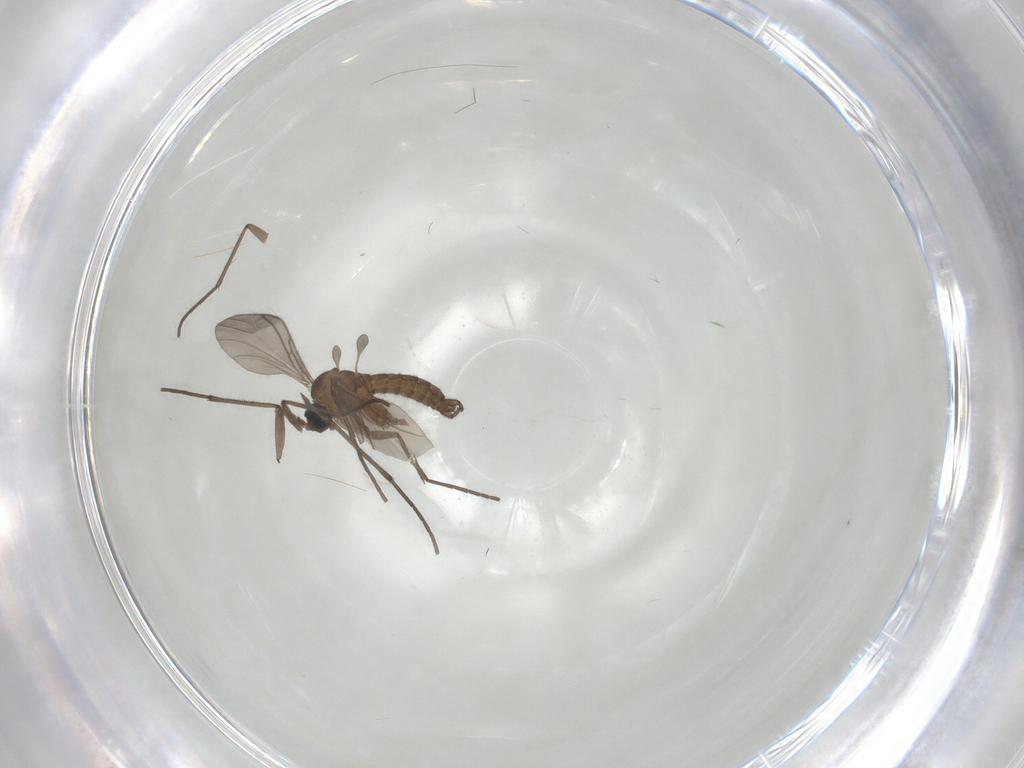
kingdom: Animalia
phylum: Arthropoda
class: Insecta
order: Diptera
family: Sciaridae
